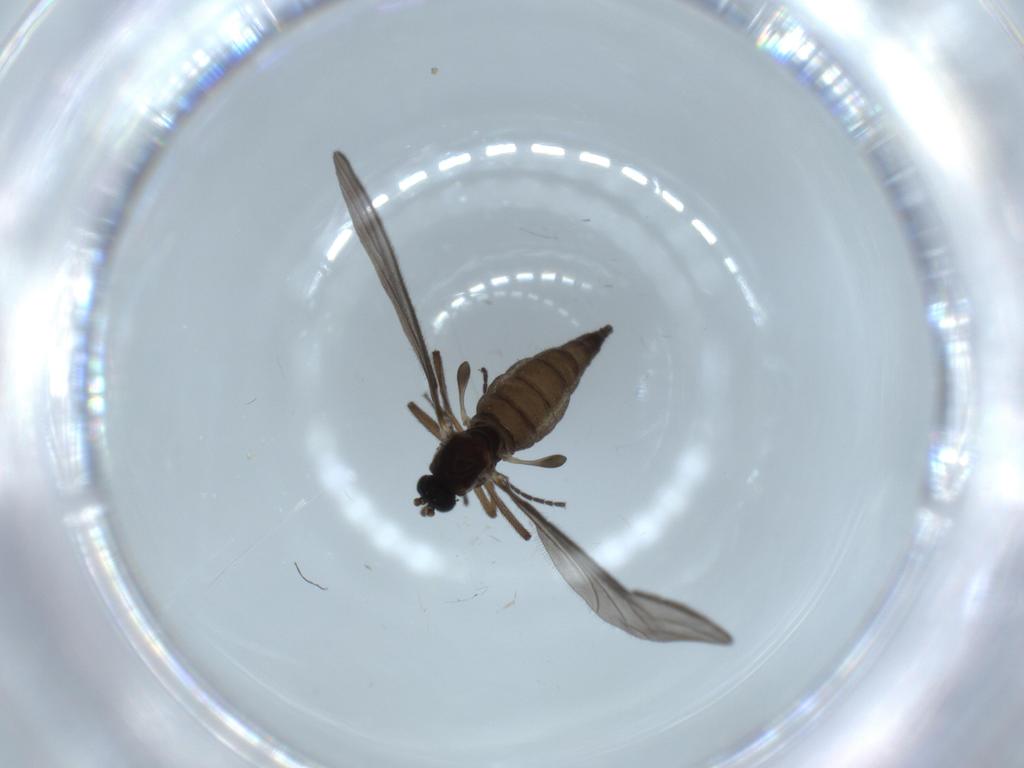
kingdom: Animalia
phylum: Arthropoda
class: Insecta
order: Diptera
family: Sciaridae
